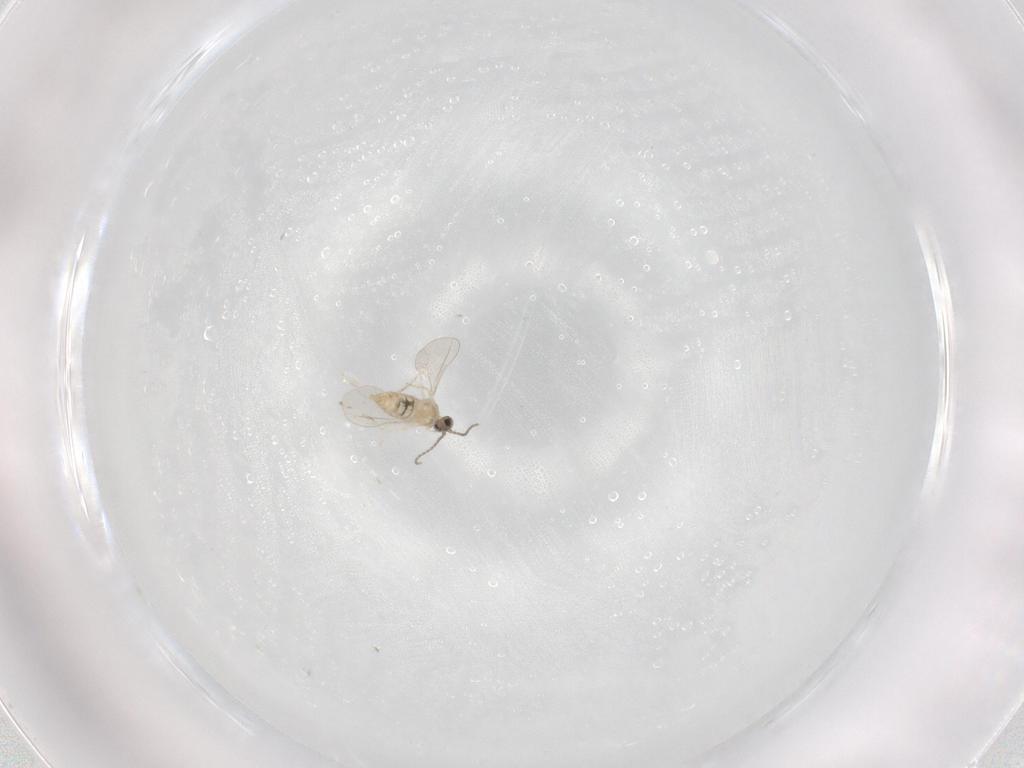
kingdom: Animalia
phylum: Arthropoda
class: Insecta
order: Diptera
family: Cecidomyiidae
